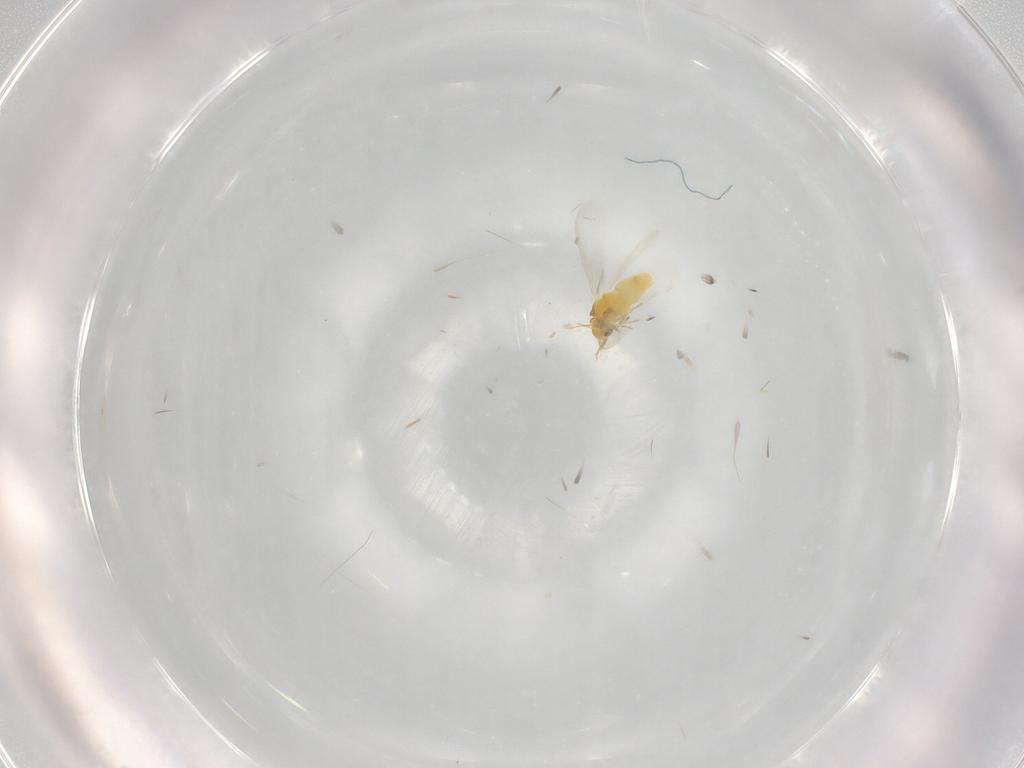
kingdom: Animalia
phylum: Arthropoda
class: Insecta
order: Hemiptera
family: Aleyrodidae
